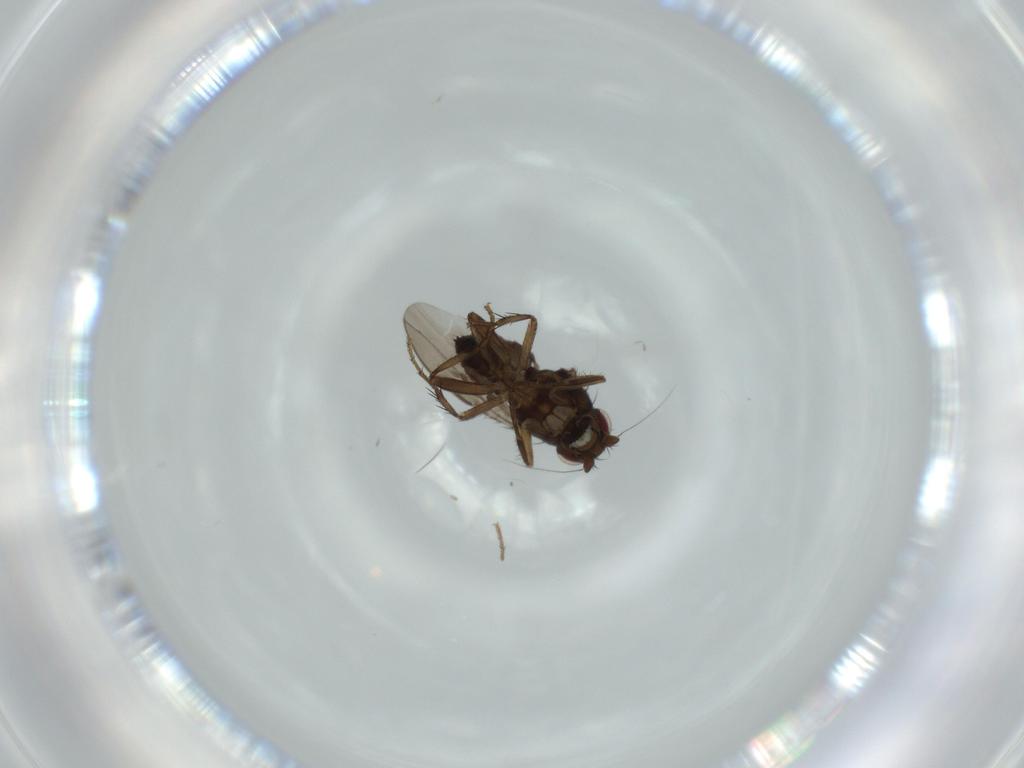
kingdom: Animalia
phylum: Arthropoda
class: Insecta
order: Diptera
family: Sphaeroceridae
